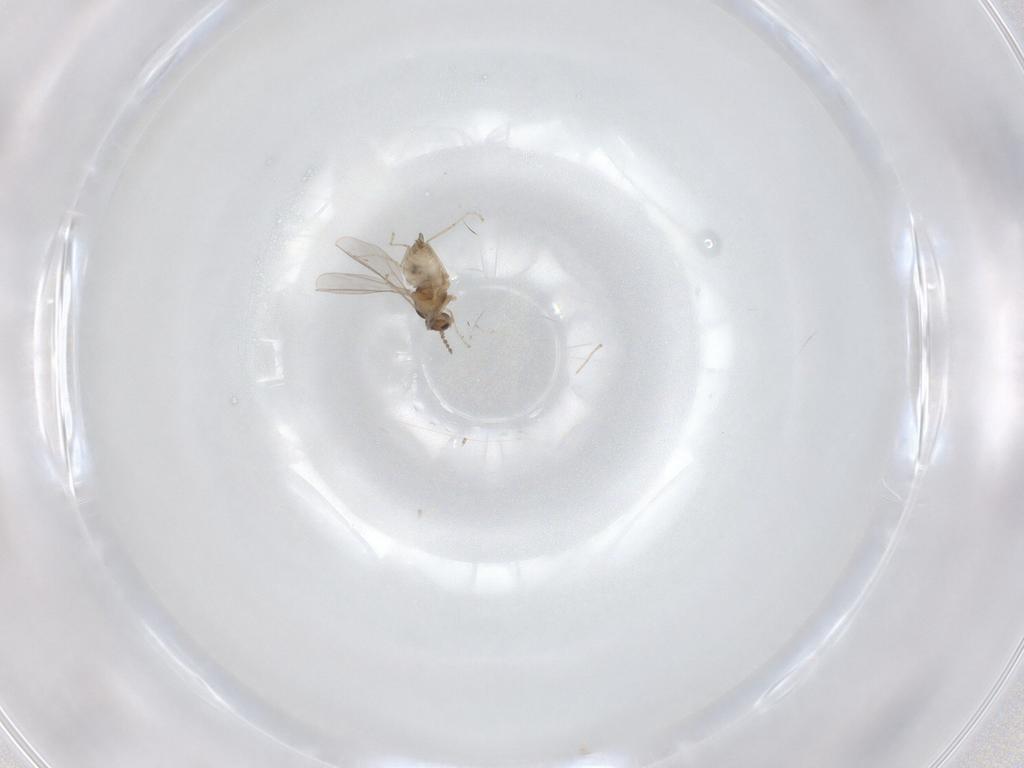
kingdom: Animalia
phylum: Arthropoda
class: Insecta
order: Diptera
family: Cecidomyiidae
